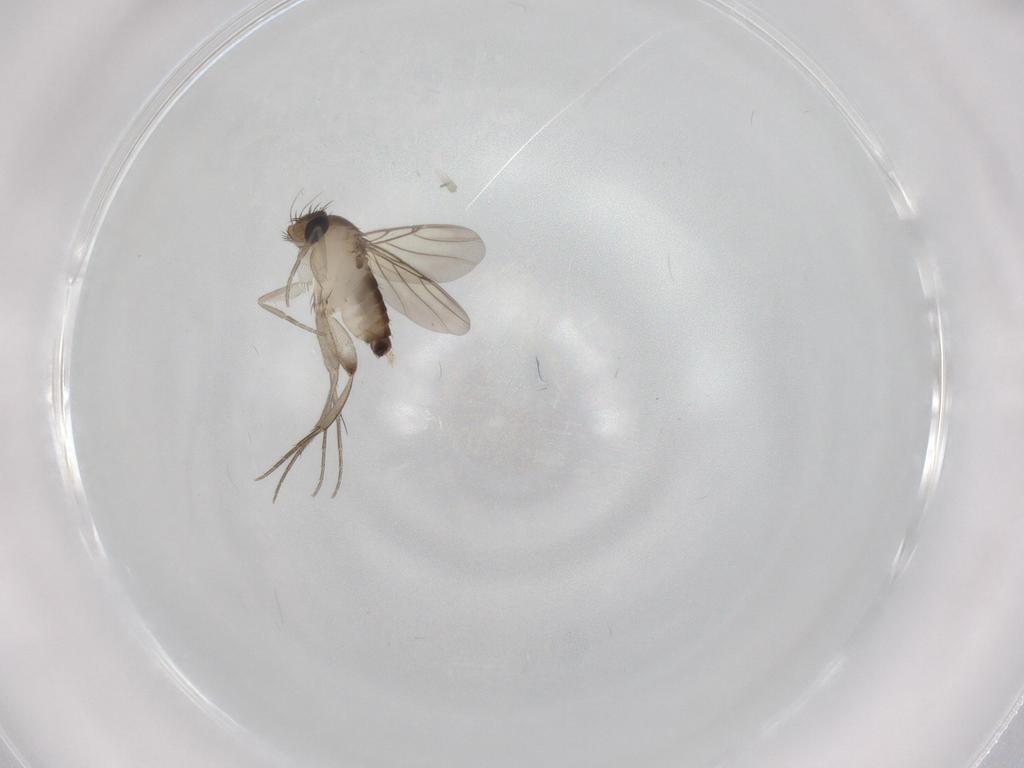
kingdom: Animalia
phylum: Arthropoda
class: Insecta
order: Diptera
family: Phoridae
